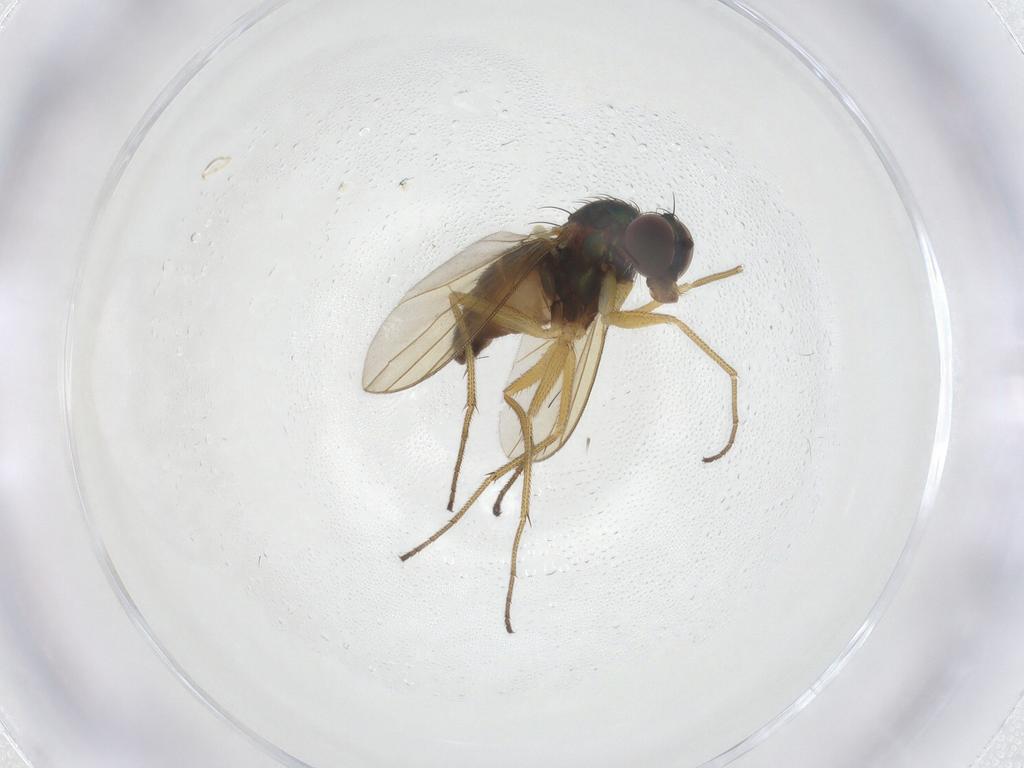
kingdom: Animalia
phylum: Arthropoda
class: Insecta
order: Diptera
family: Dolichopodidae
